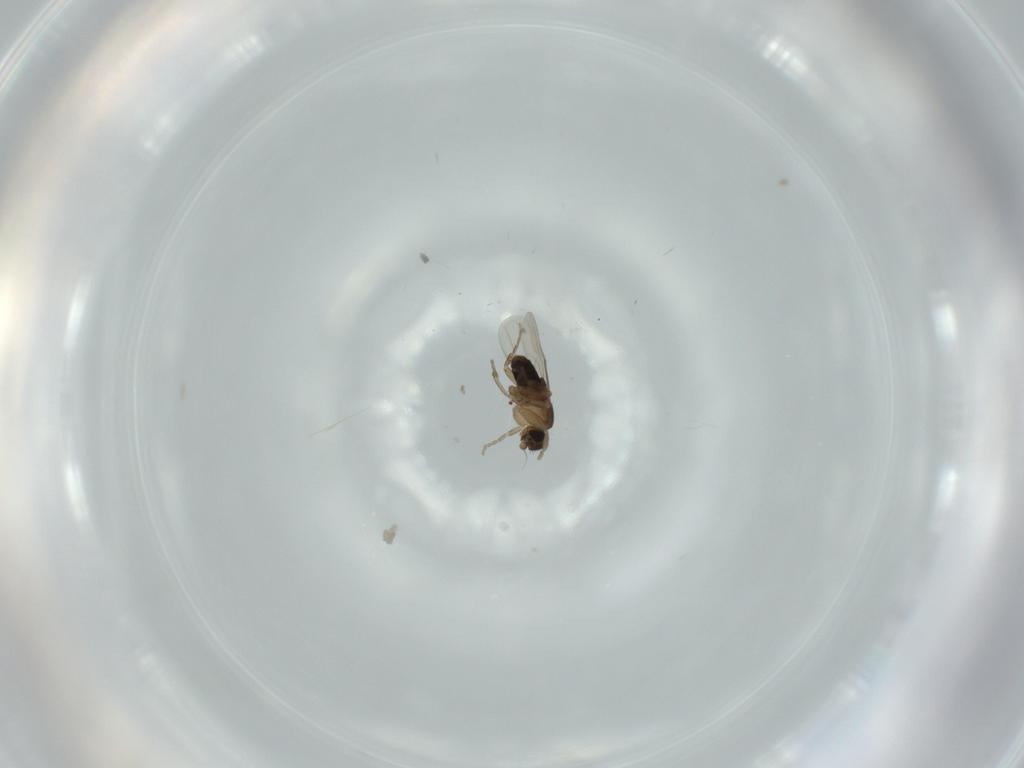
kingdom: Animalia
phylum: Arthropoda
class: Insecta
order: Diptera
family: Phoridae
